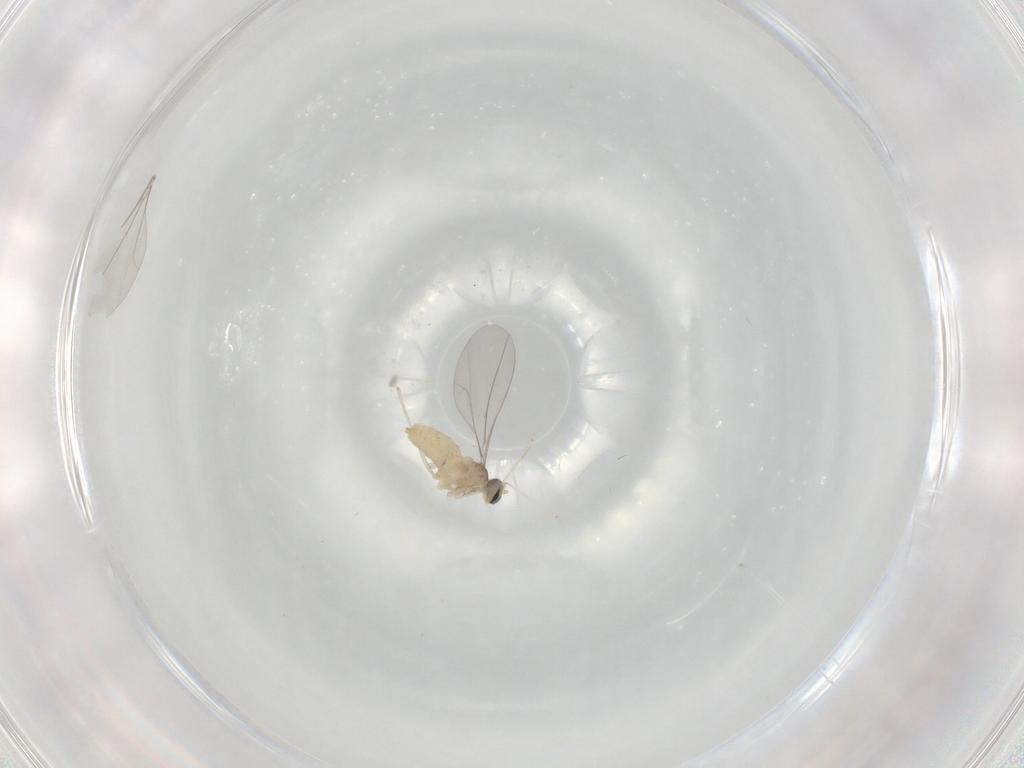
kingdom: Animalia
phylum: Arthropoda
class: Insecta
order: Diptera
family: Cecidomyiidae
